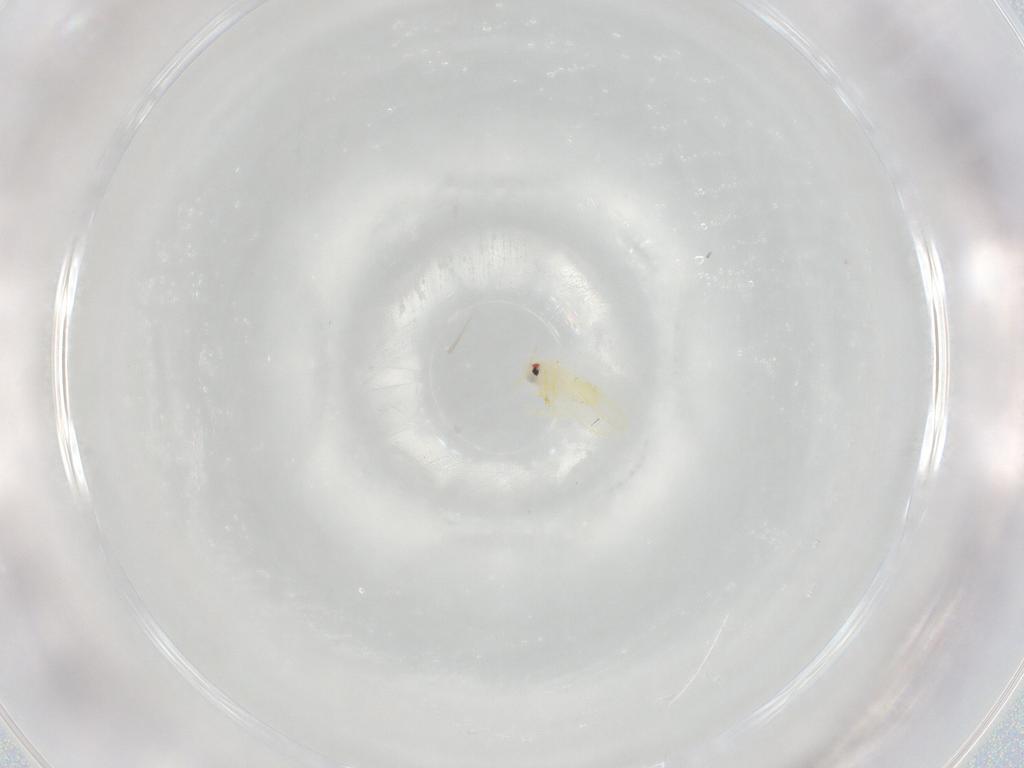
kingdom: Animalia
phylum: Arthropoda
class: Insecta
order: Hemiptera
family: Aleyrodidae
